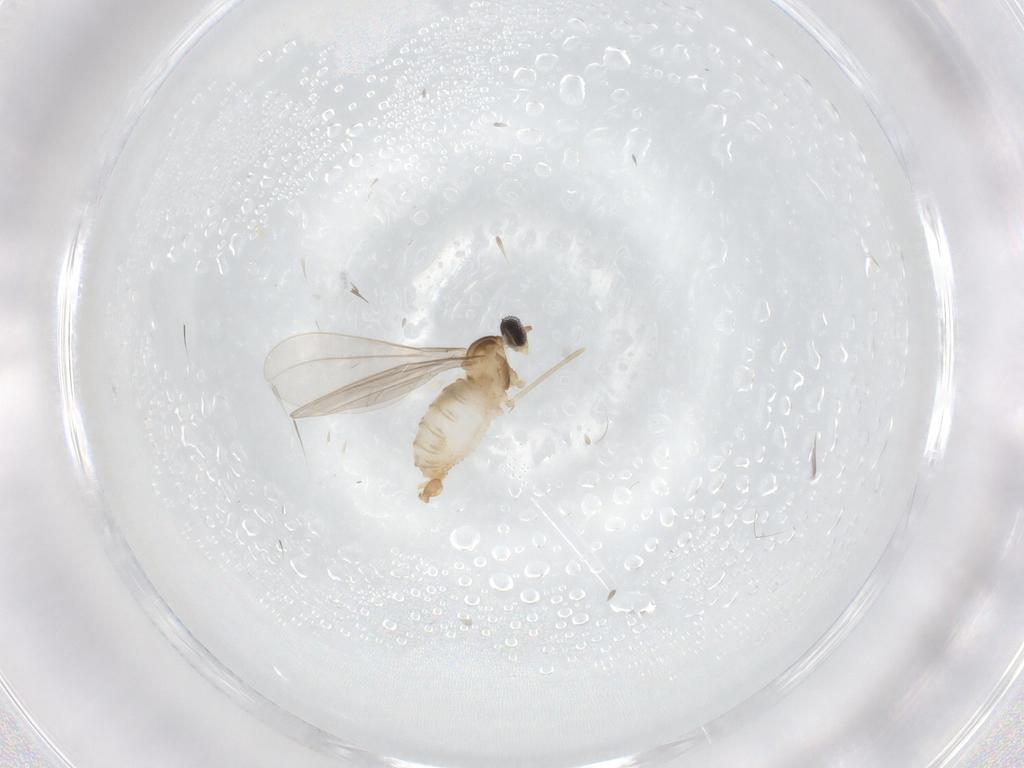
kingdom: Animalia
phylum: Arthropoda
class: Insecta
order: Diptera
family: Cecidomyiidae
